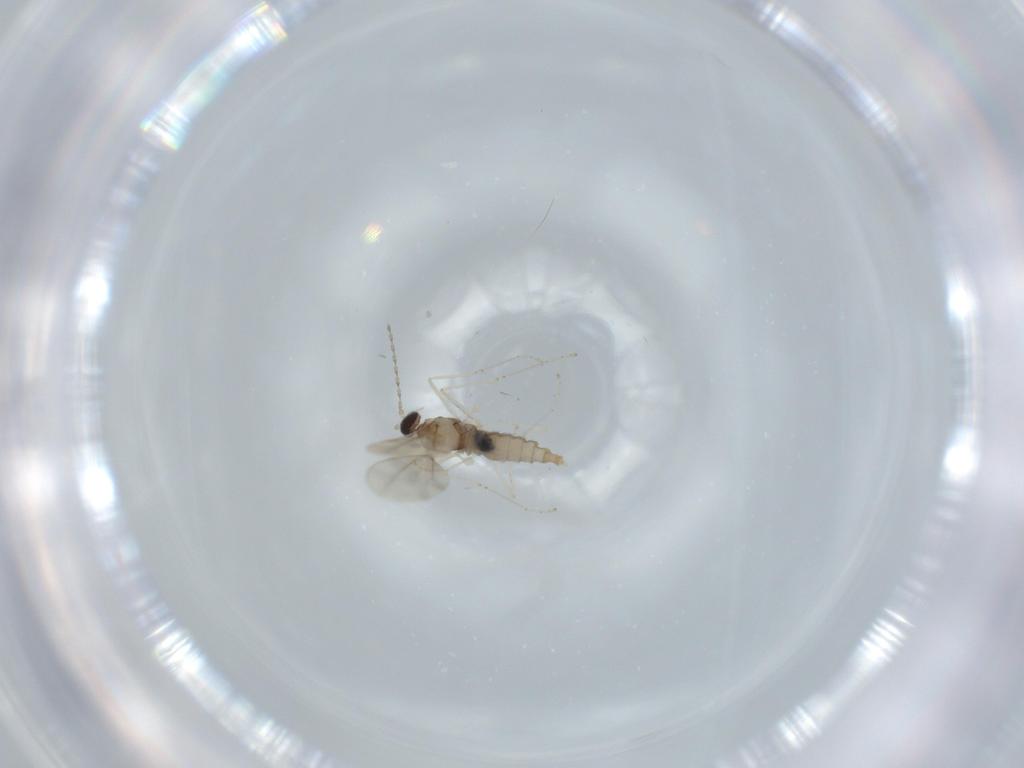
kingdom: Animalia
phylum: Arthropoda
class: Insecta
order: Diptera
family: Cecidomyiidae
